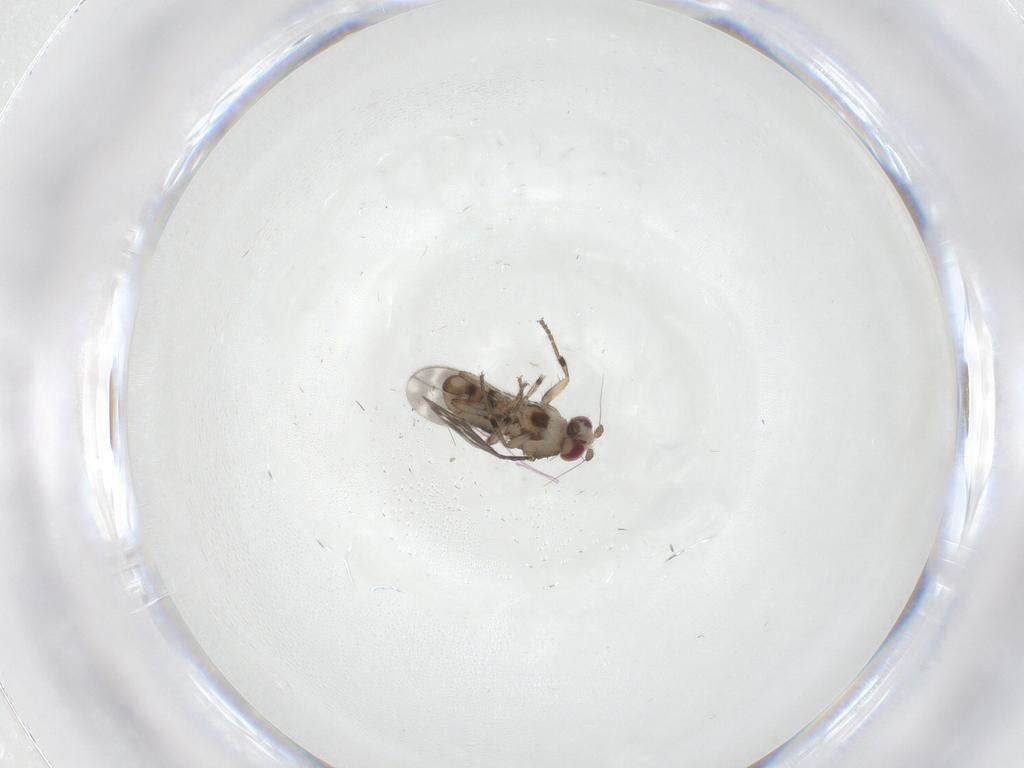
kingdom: Animalia
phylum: Arthropoda
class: Insecta
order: Diptera
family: Sphaeroceridae
